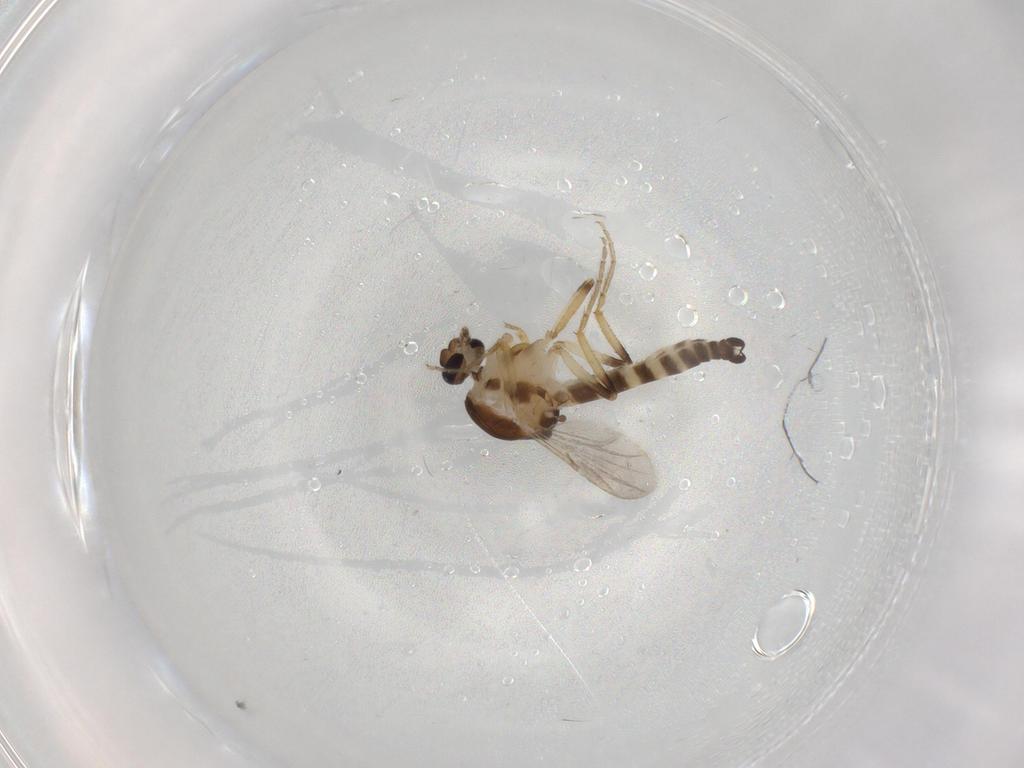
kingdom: Animalia
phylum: Arthropoda
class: Insecta
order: Diptera
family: Ceratopogonidae
